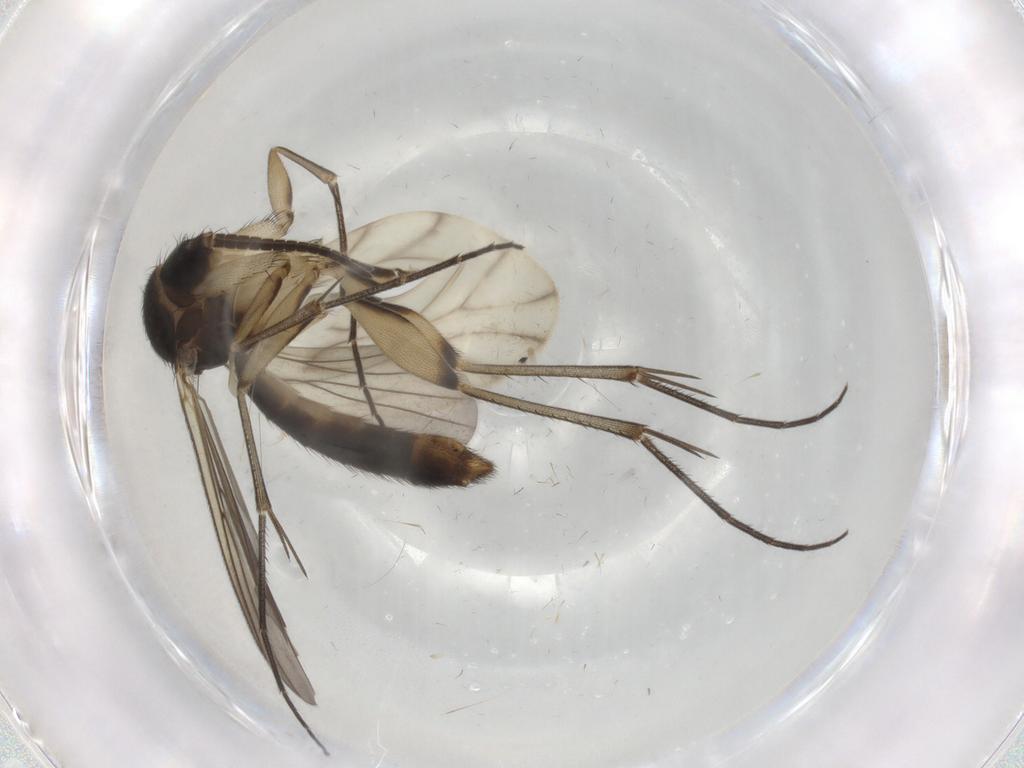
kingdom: Animalia
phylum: Arthropoda
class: Insecta
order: Diptera
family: Mycetophilidae
